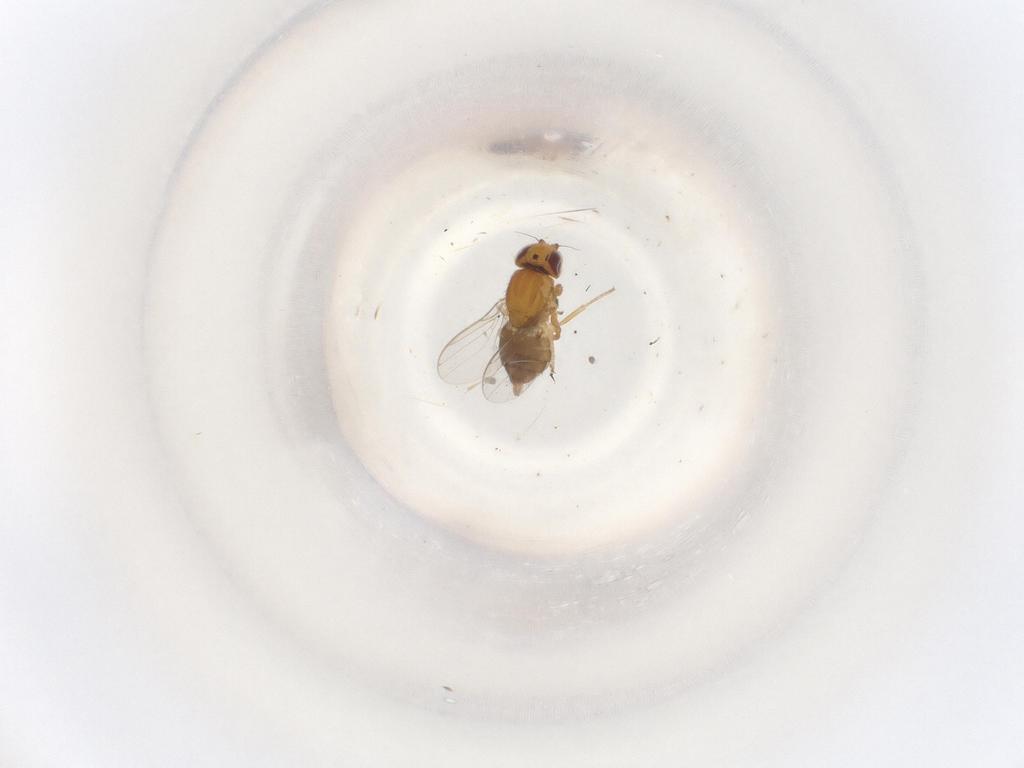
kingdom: Animalia
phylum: Arthropoda
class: Insecta
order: Diptera
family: Chloropidae
